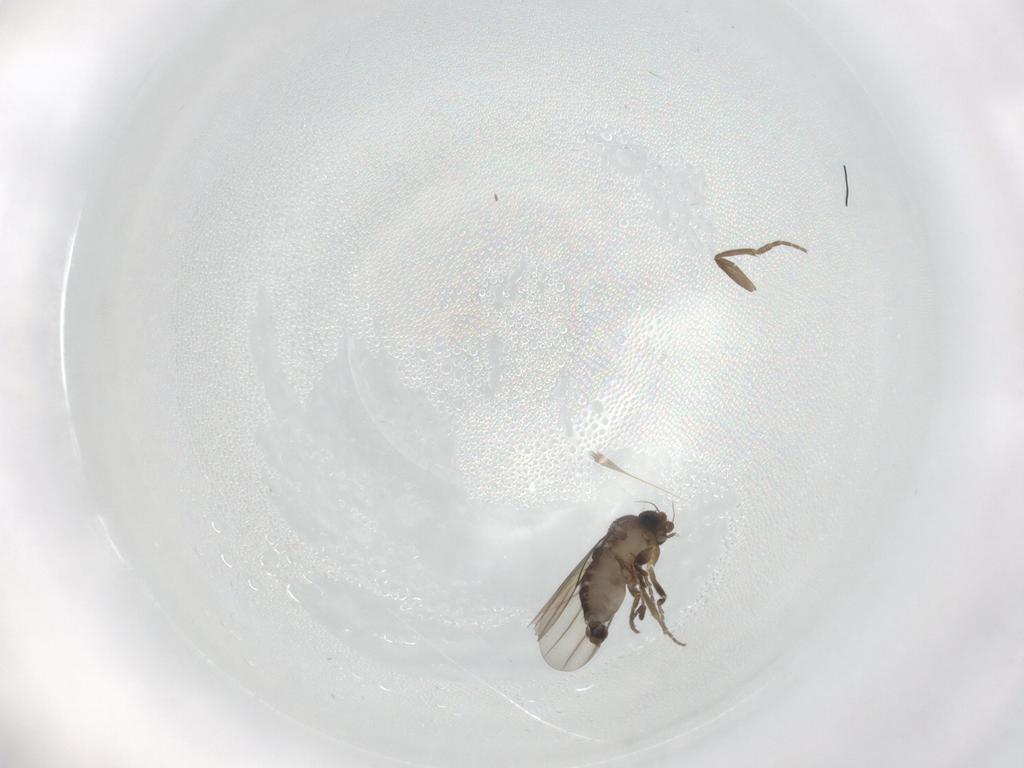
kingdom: Animalia
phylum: Arthropoda
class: Insecta
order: Diptera
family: Phoridae
